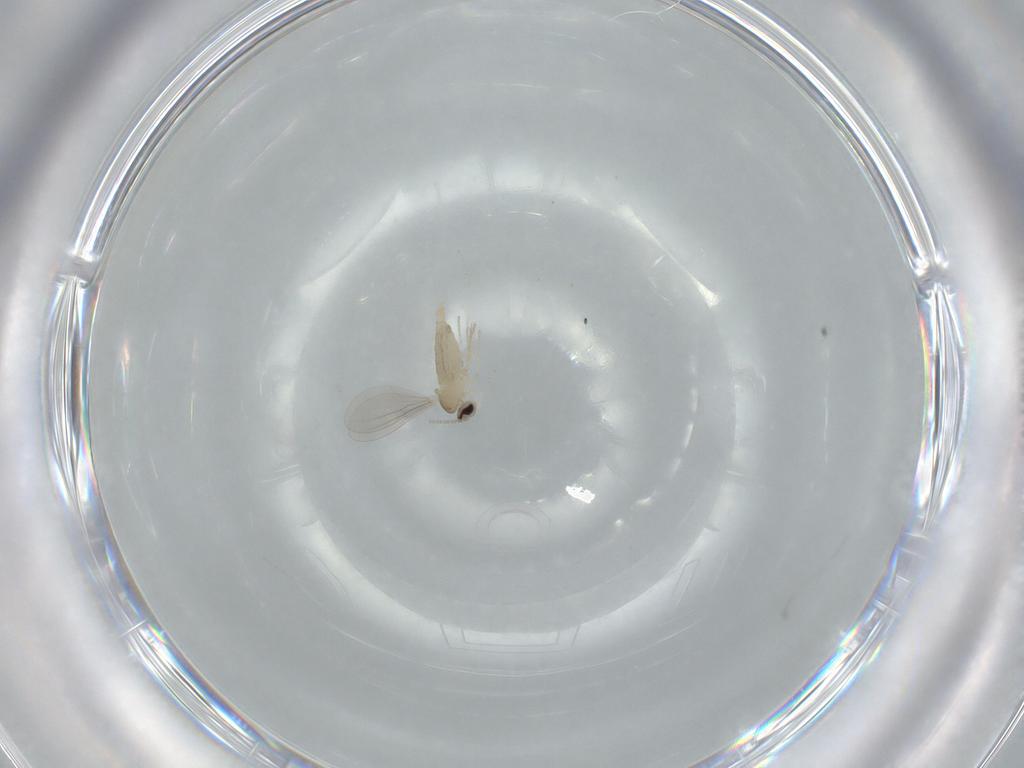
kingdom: Animalia
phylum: Arthropoda
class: Insecta
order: Diptera
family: Cecidomyiidae
